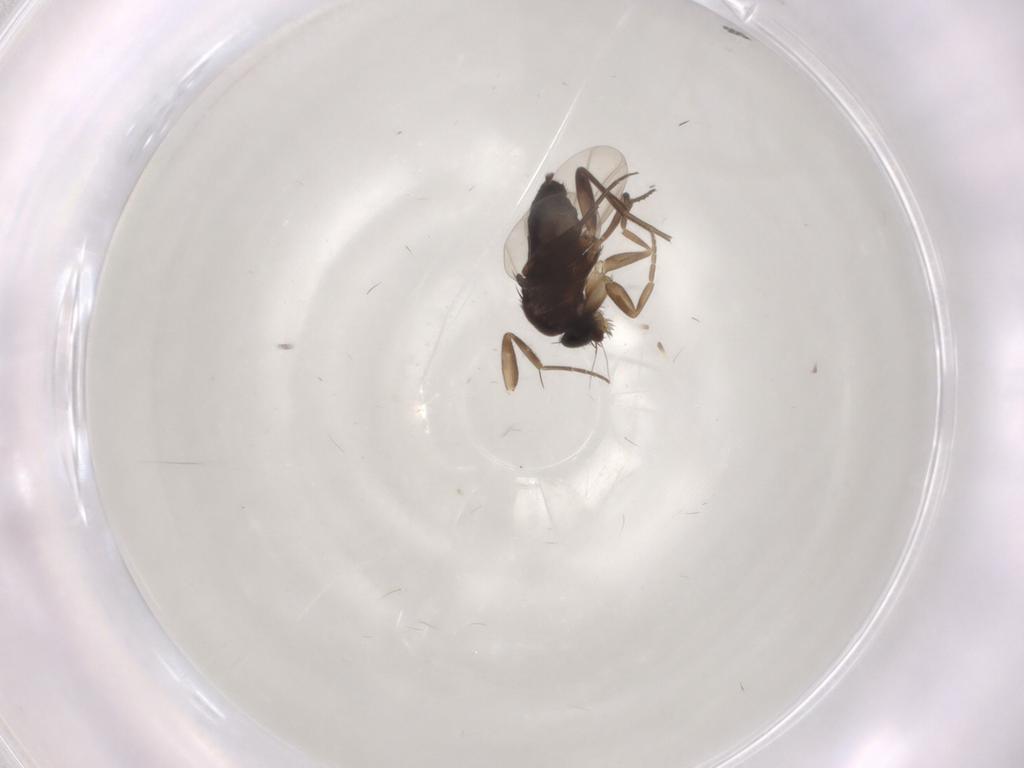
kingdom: Animalia
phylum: Arthropoda
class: Insecta
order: Diptera
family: Phoridae
